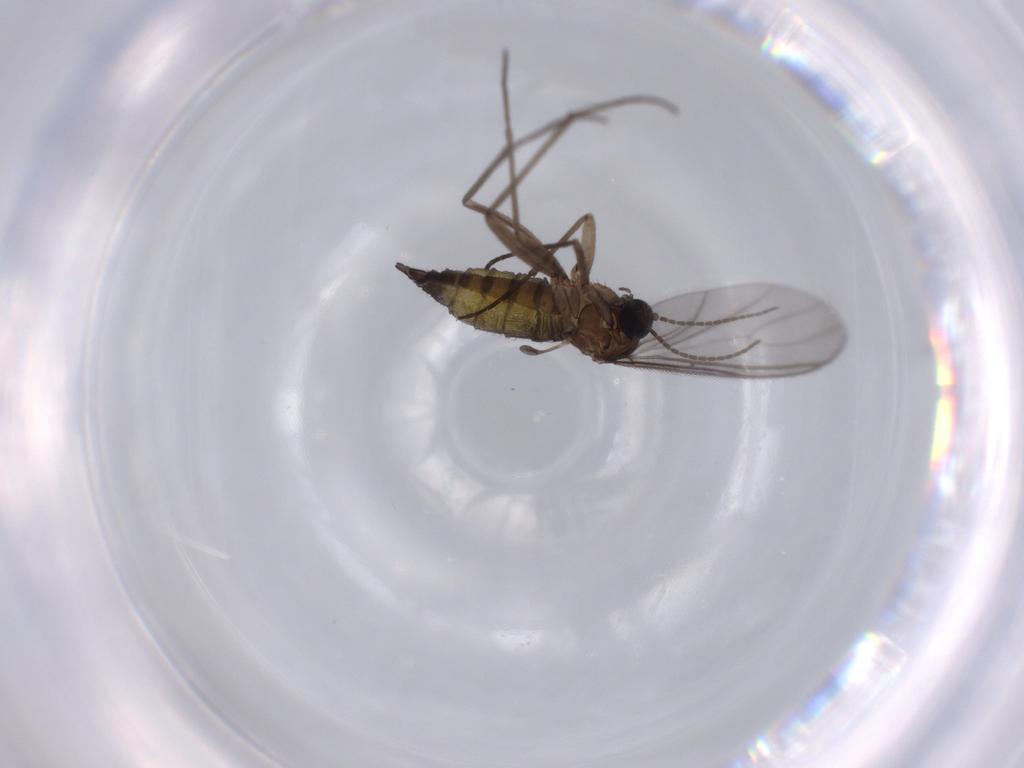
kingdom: Animalia
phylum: Arthropoda
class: Insecta
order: Diptera
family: Sciaridae
